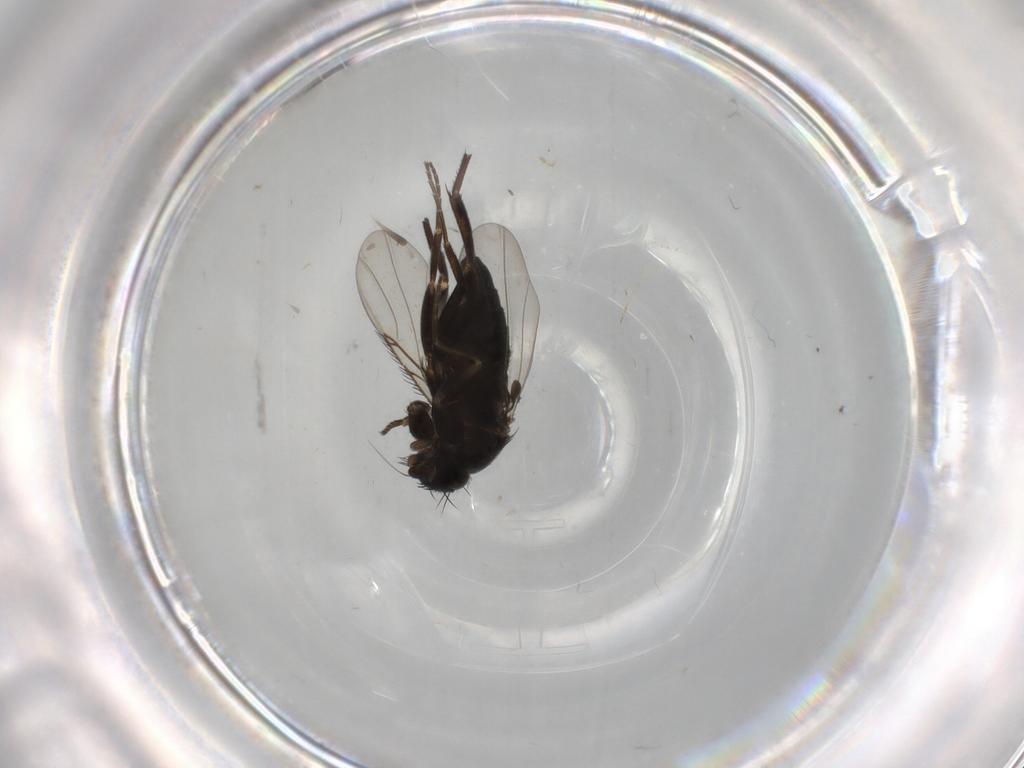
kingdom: Animalia
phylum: Arthropoda
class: Insecta
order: Diptera
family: Phoridae
